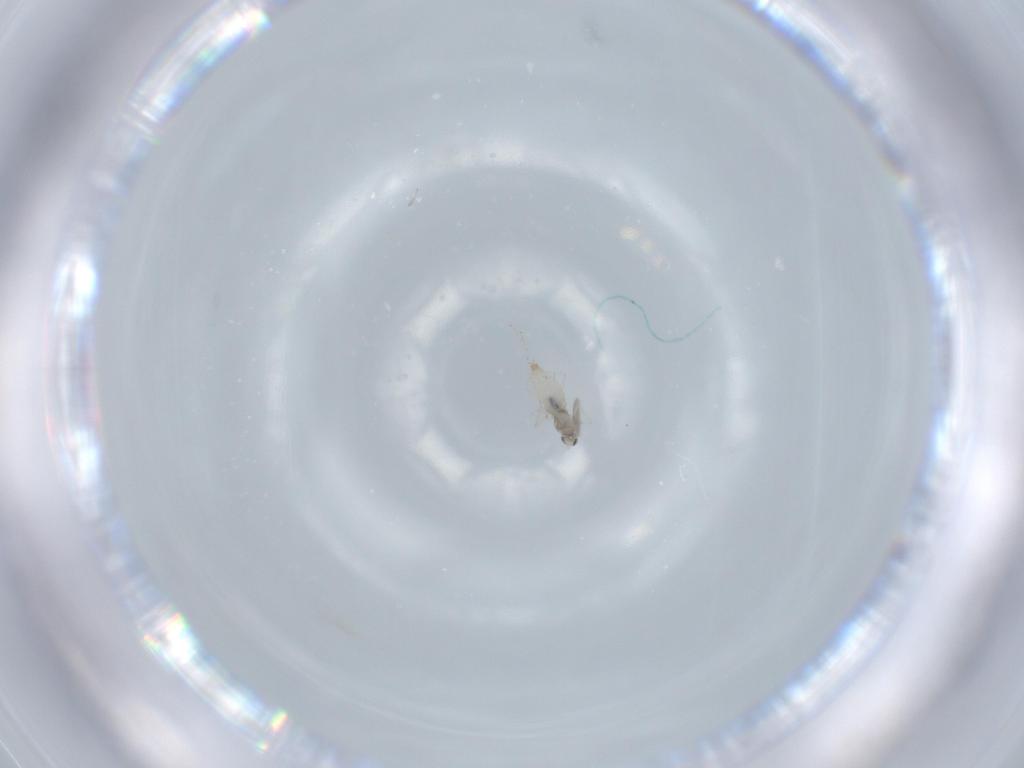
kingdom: Animalia
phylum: Arthropoda
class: Insecta
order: Diptera
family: Cecidomyiidae
